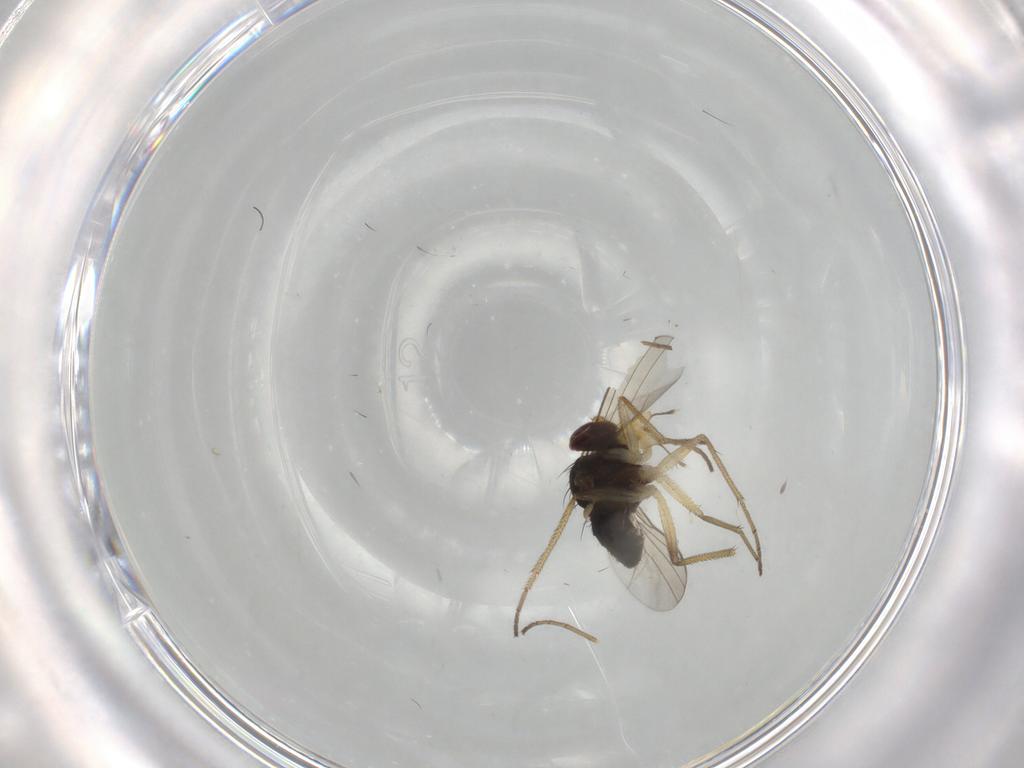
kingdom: Animalia
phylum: Arthropoda
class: Insecta
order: Diptera
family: Dolichopodidae
